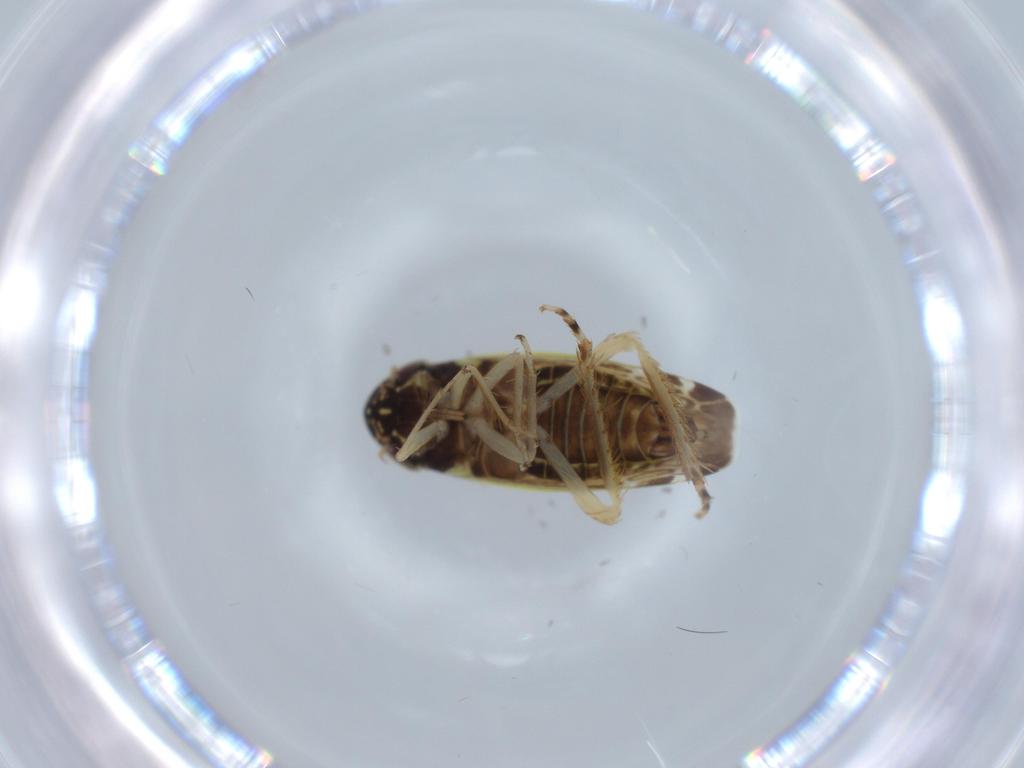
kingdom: Animalia
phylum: Arthropoda
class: Insecta
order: Hemiptera
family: Cicadellidae
